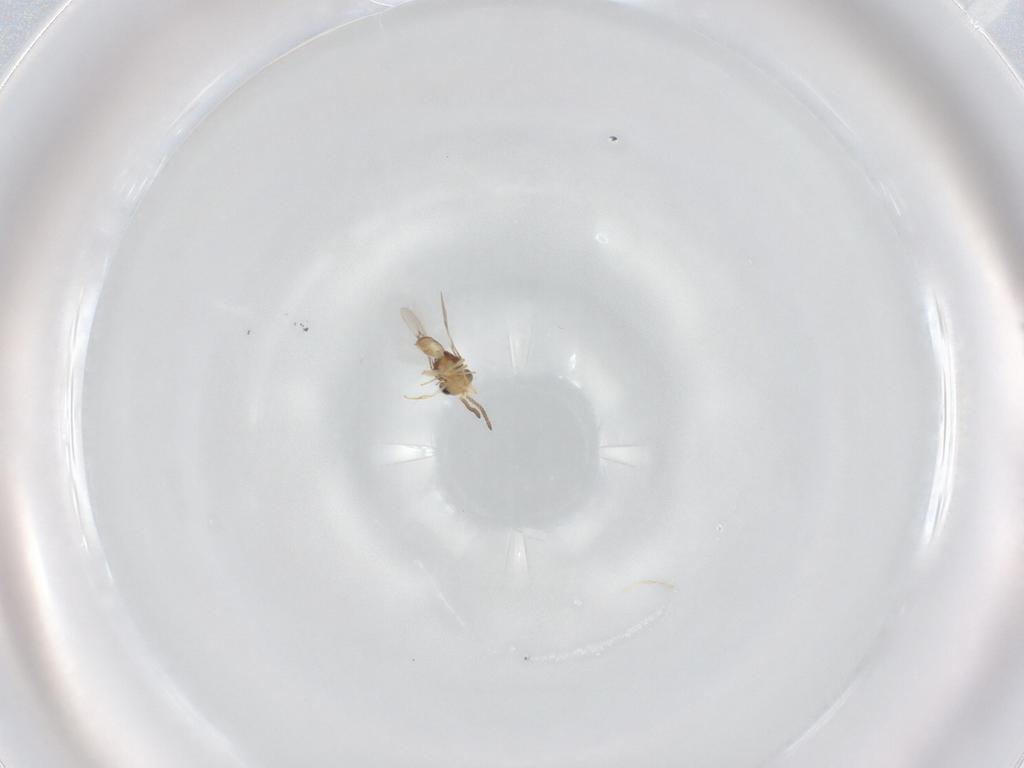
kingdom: Animalia
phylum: Arthropoda
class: Insecta
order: Hymenoptera
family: Scelionidae
